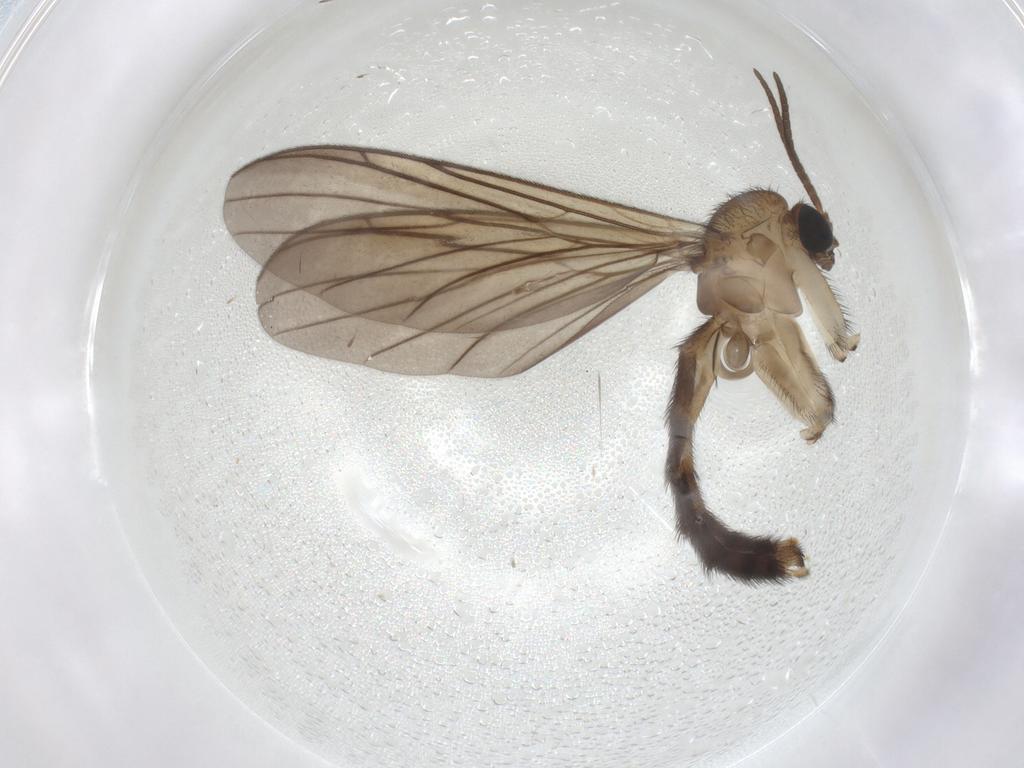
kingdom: Animalia
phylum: Arthropoda
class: Insecta
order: Diptera
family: Keroplatidae
